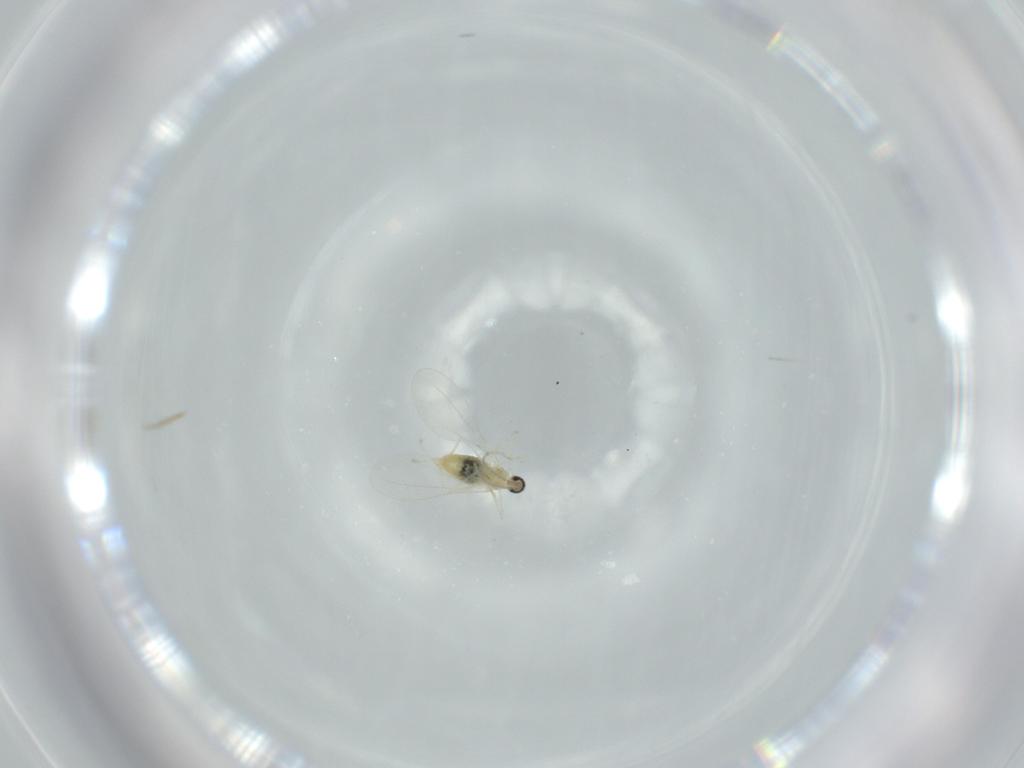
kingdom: Animalia
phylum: Arthropoda
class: Insecta
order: Diptera
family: Cecidomyiidae
